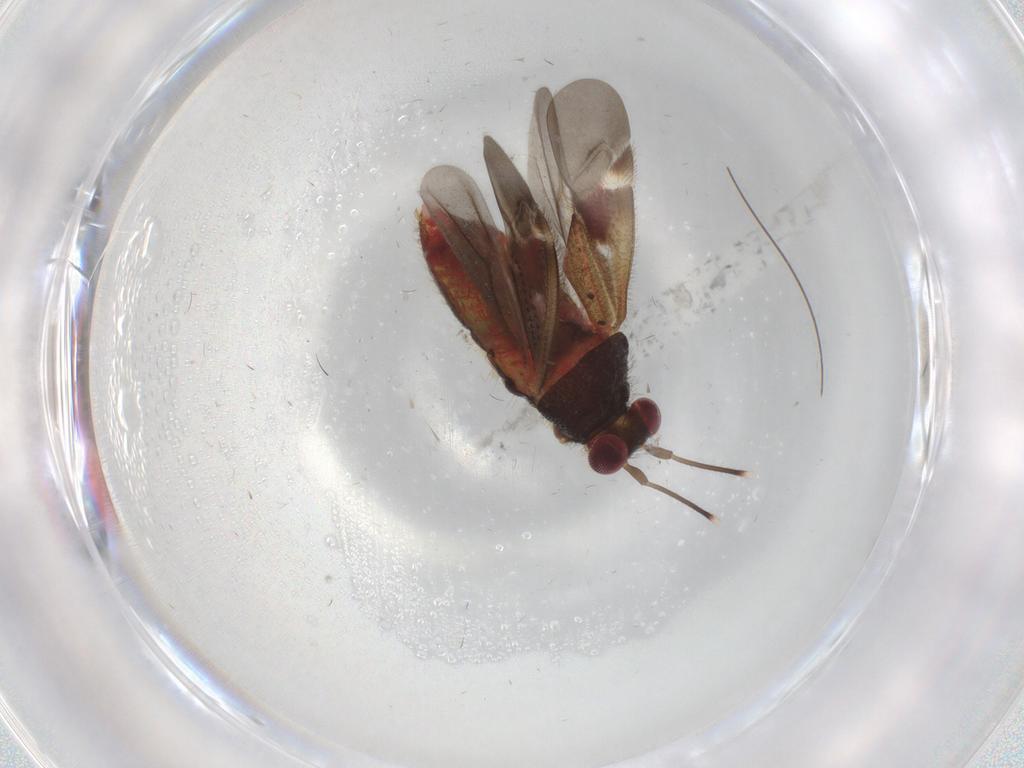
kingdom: Animalia
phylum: Arthropoda
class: Insecta
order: Hemiptera
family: Miridae
